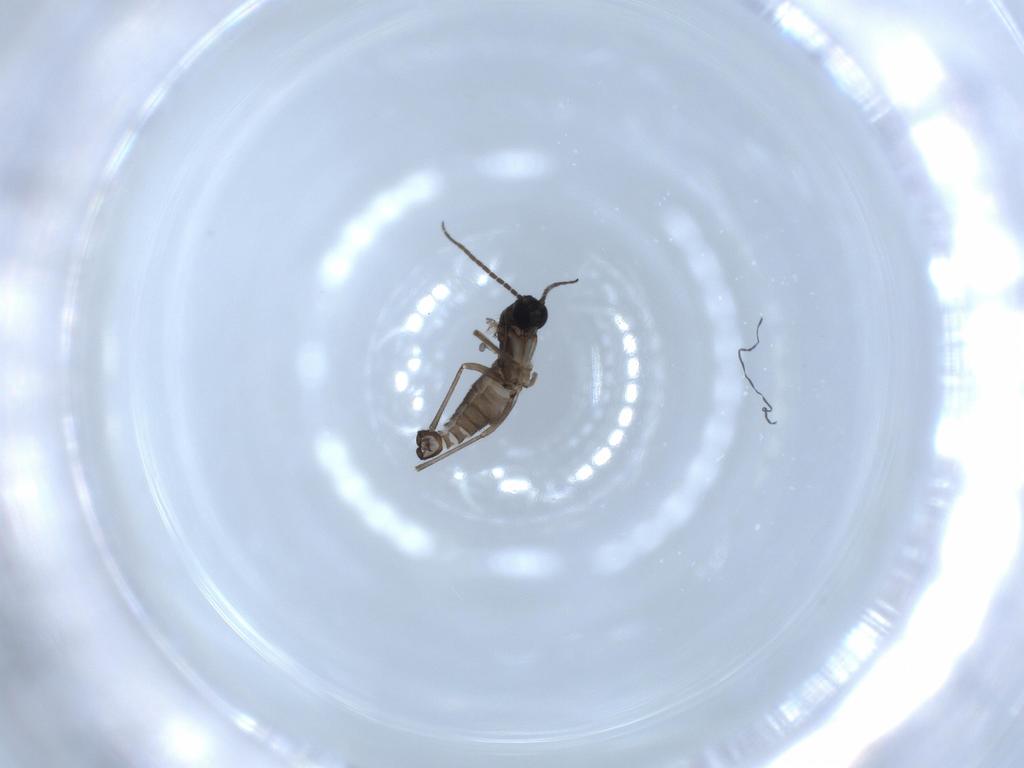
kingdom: Animalia
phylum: Arthropoda
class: Insecta
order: Diptera
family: Sciaridae
